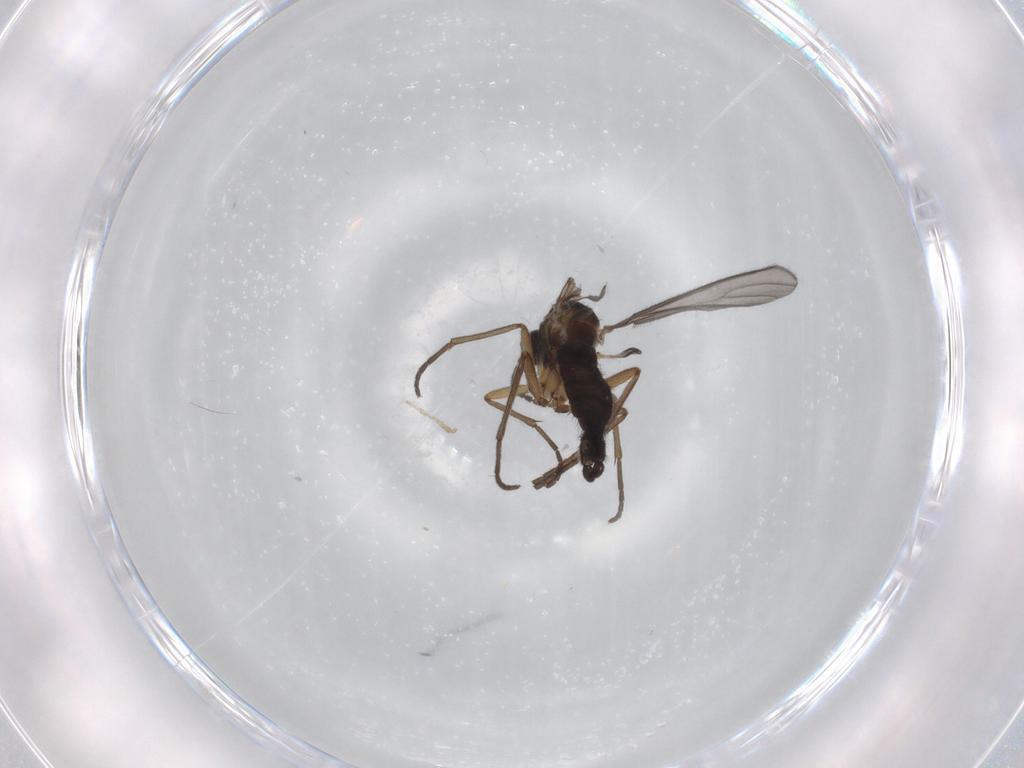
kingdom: Animalia
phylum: Arthropoda
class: Insecta
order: Diptera
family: Sciaridae
